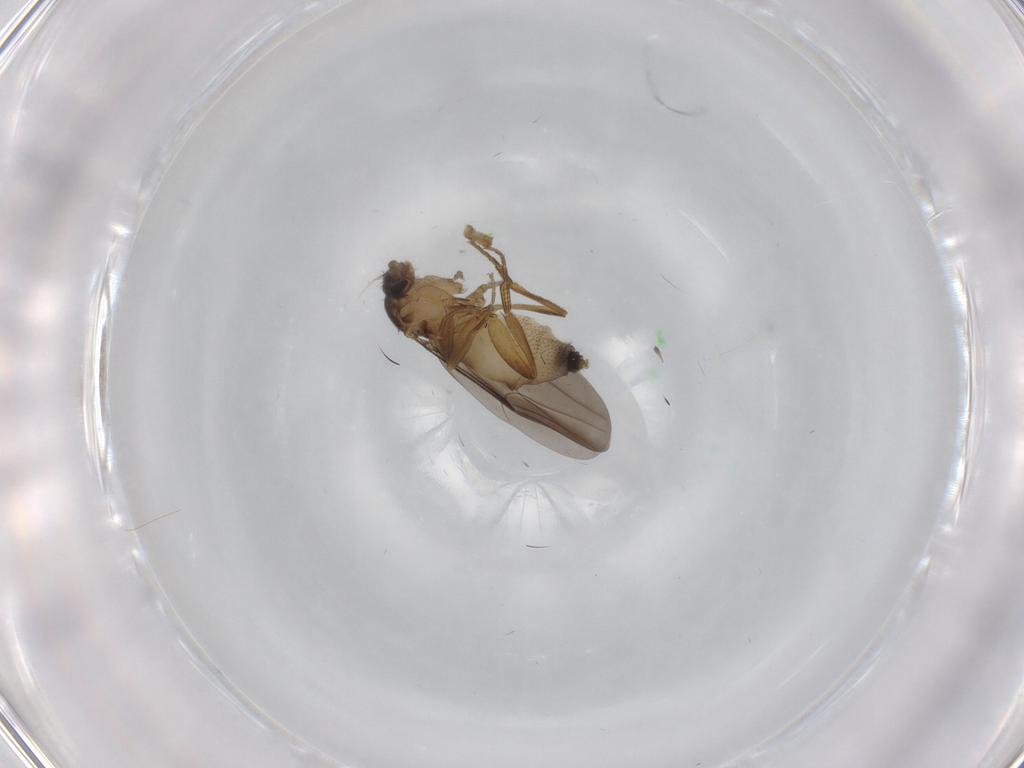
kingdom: Animalia
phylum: Arthropoda
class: Insecta
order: Diptera
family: Phoridae
